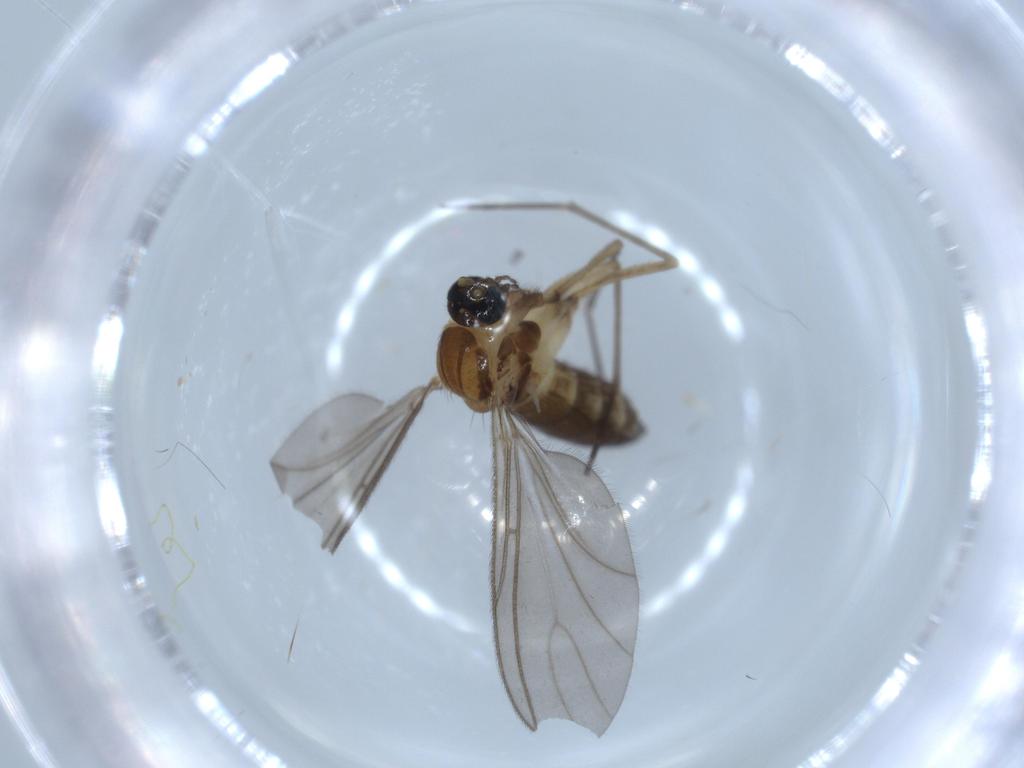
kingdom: Animalia
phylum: Arthropoda
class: Insecta
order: Diptera
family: Sciaridae
